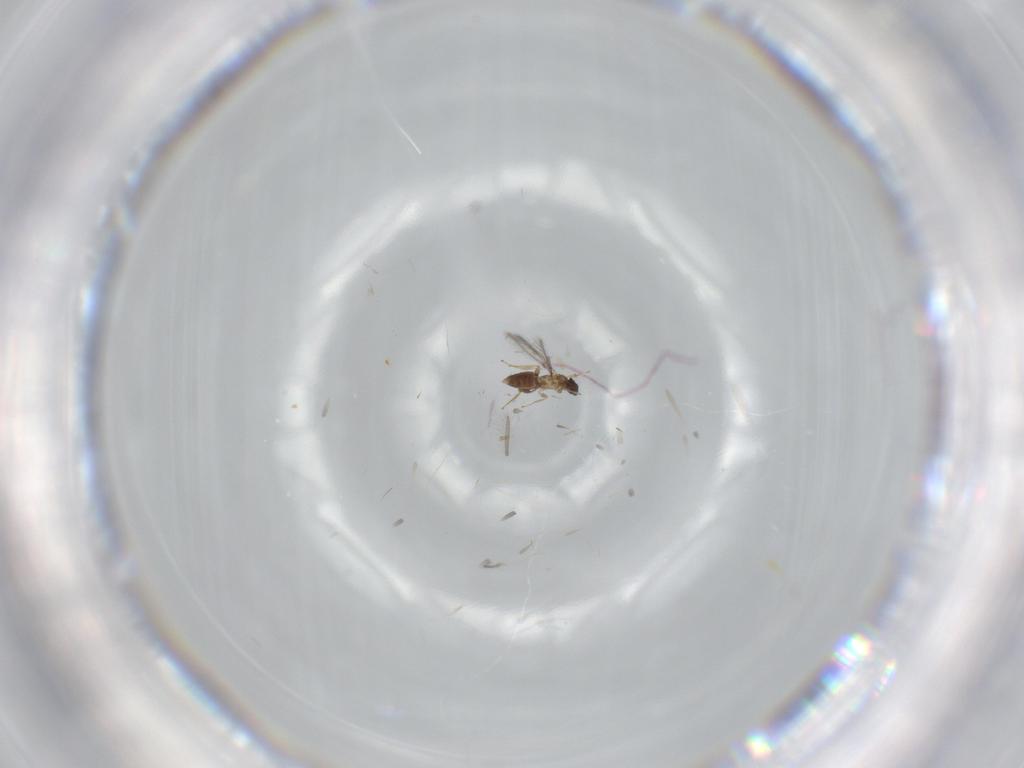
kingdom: Animalia
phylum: Arthropoda
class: Insecta
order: Hymenoptera
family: Mymaridae
